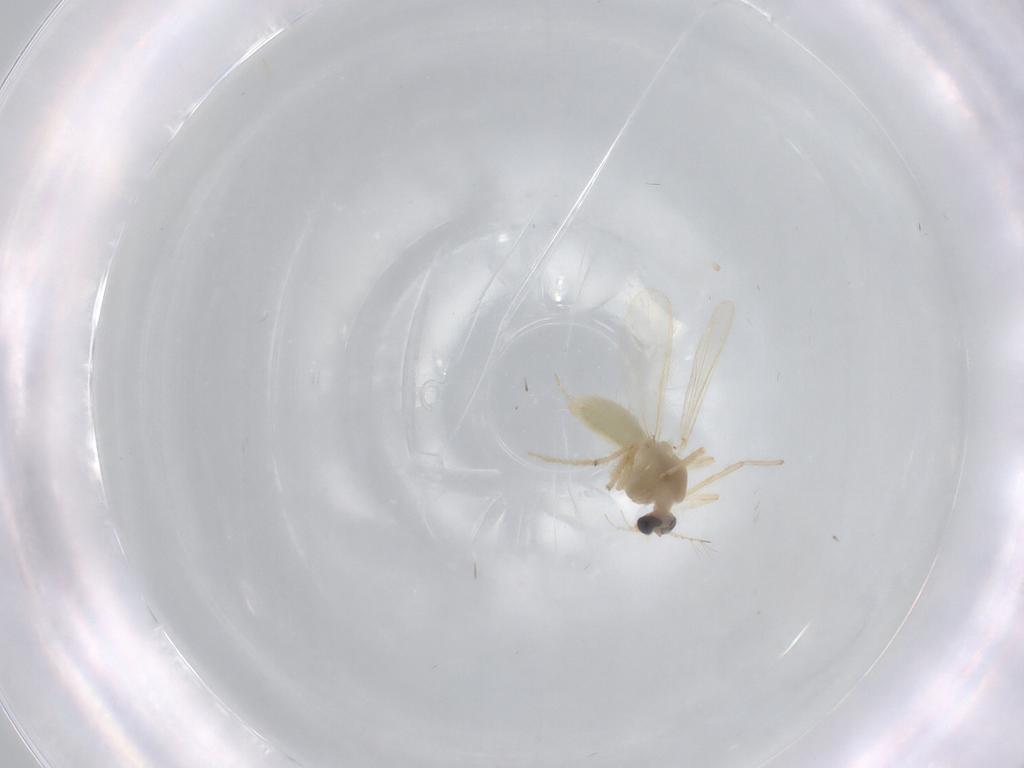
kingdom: Animalia
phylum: Arthropoda
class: Insecta
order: Diptera
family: Chironomidae
